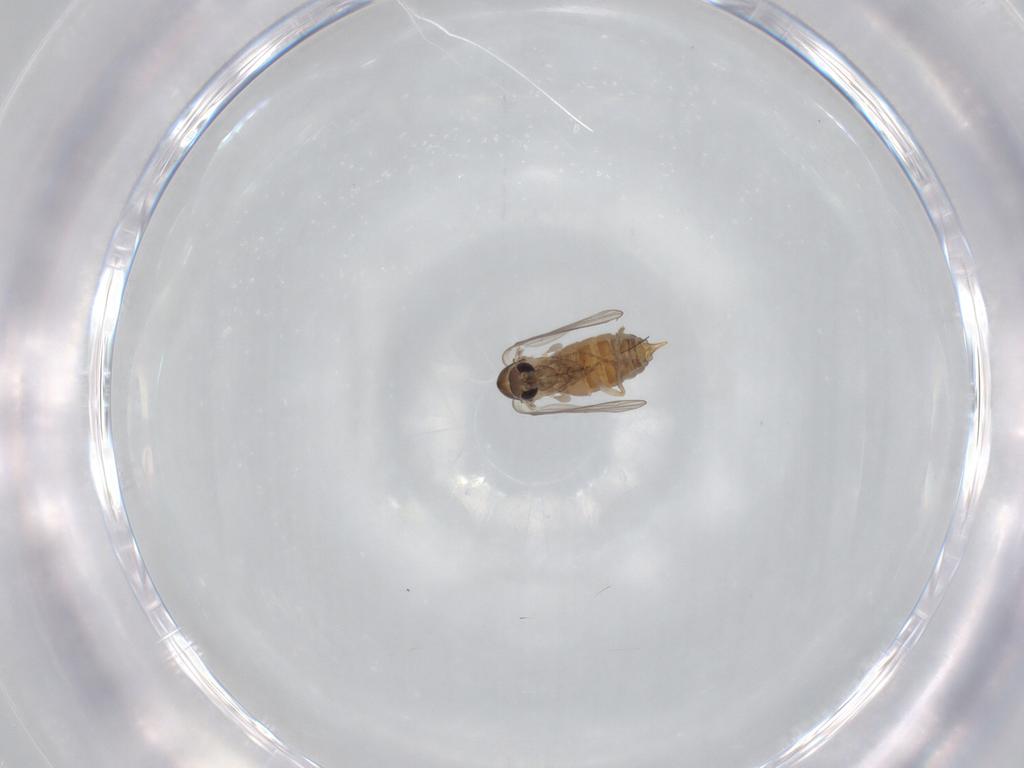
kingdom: Animalia
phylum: Arthropoda
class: Insecta
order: Diptera
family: Psychodidae
